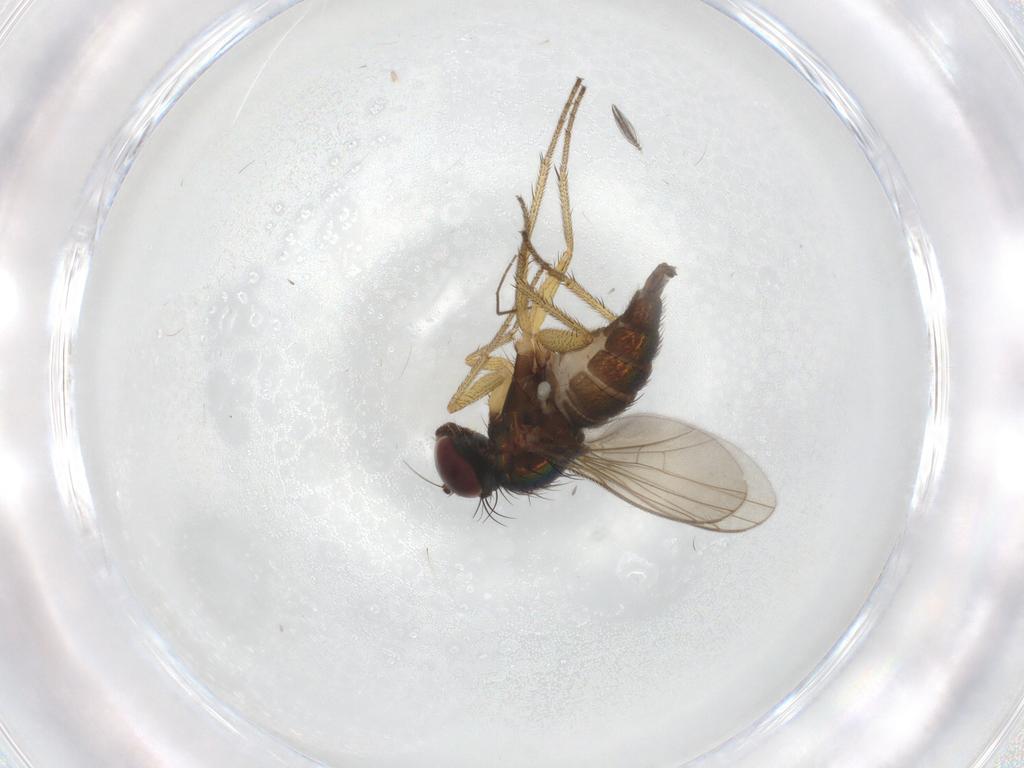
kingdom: Animalia
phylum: Arthropoda
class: Insecta
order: Diptera
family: Dolichopodidae
